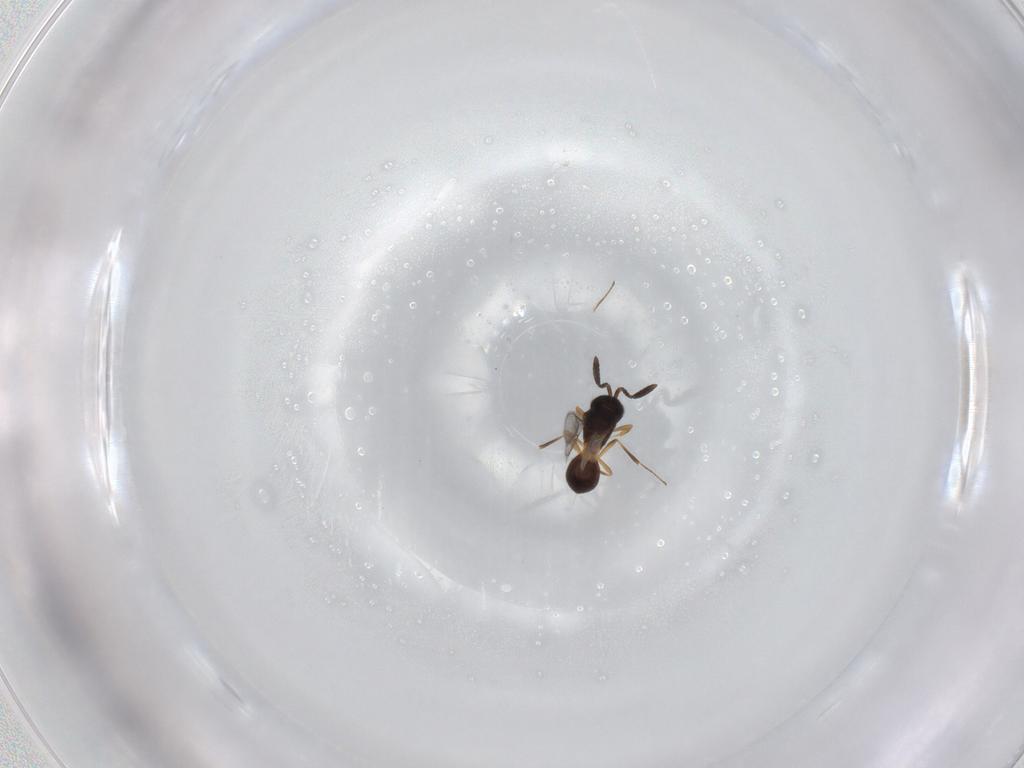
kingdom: Animalia
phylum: Arthropoda
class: Insecta
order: Hymenoptera
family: Scelionidae
